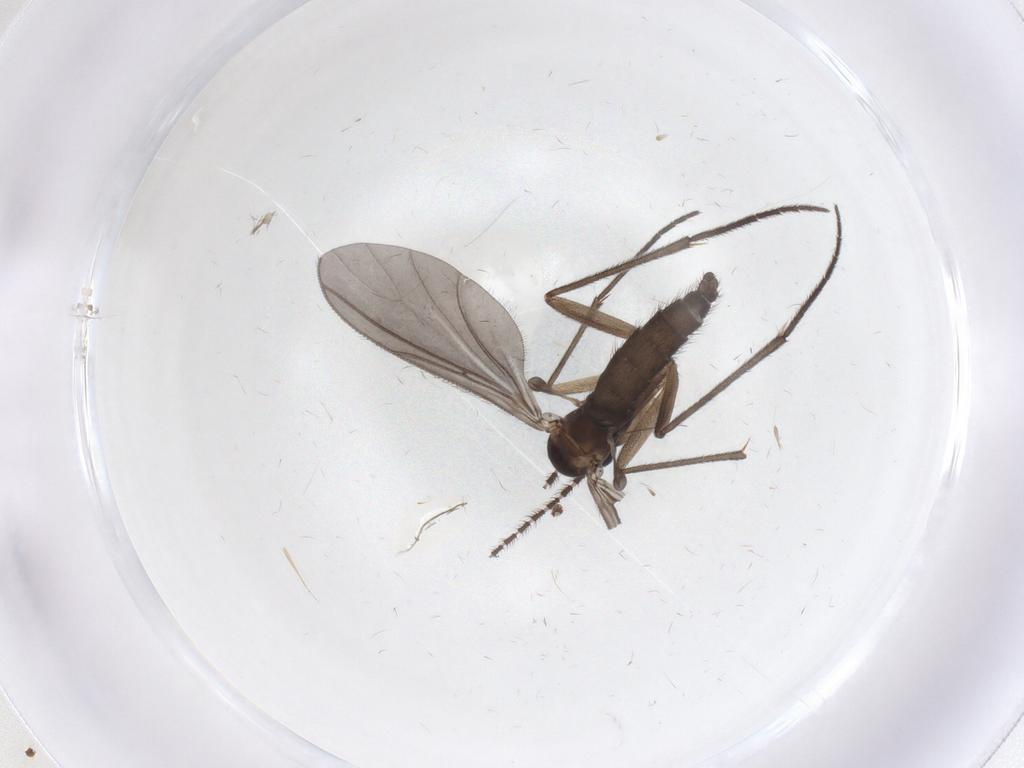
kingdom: Animalia
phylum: Arthropoda
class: Insecta
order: Diptera
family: Sciaridae
